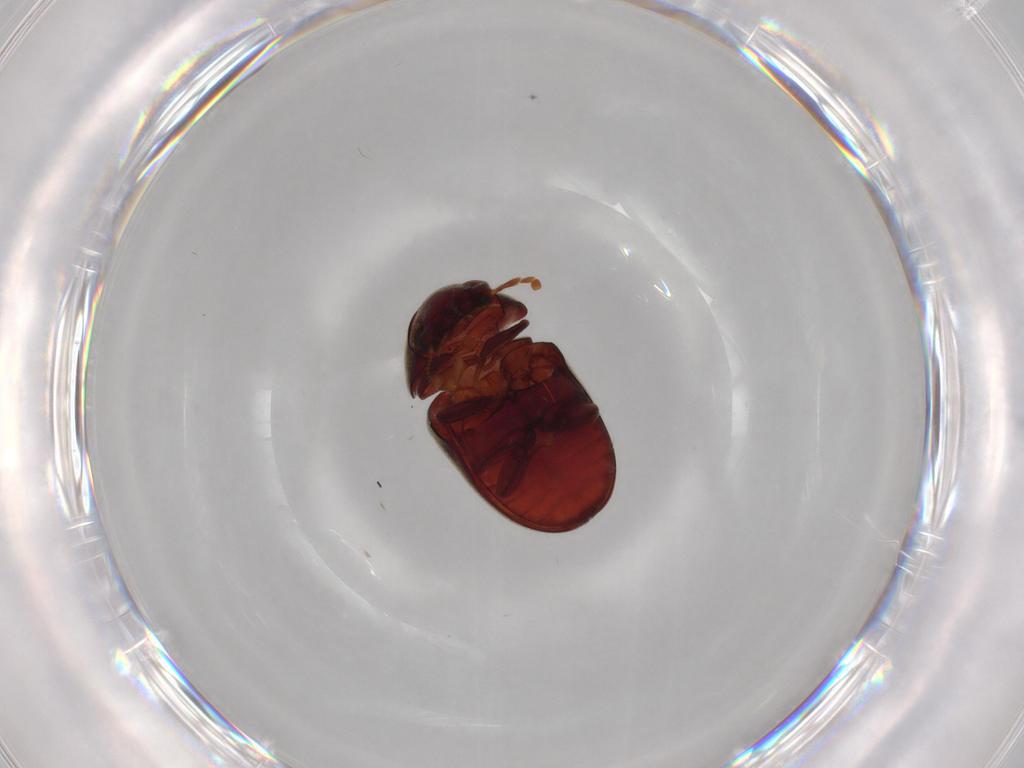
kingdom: Animalia
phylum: Arthropoda
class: Insecta
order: Coleoptera
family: Ptinidae
